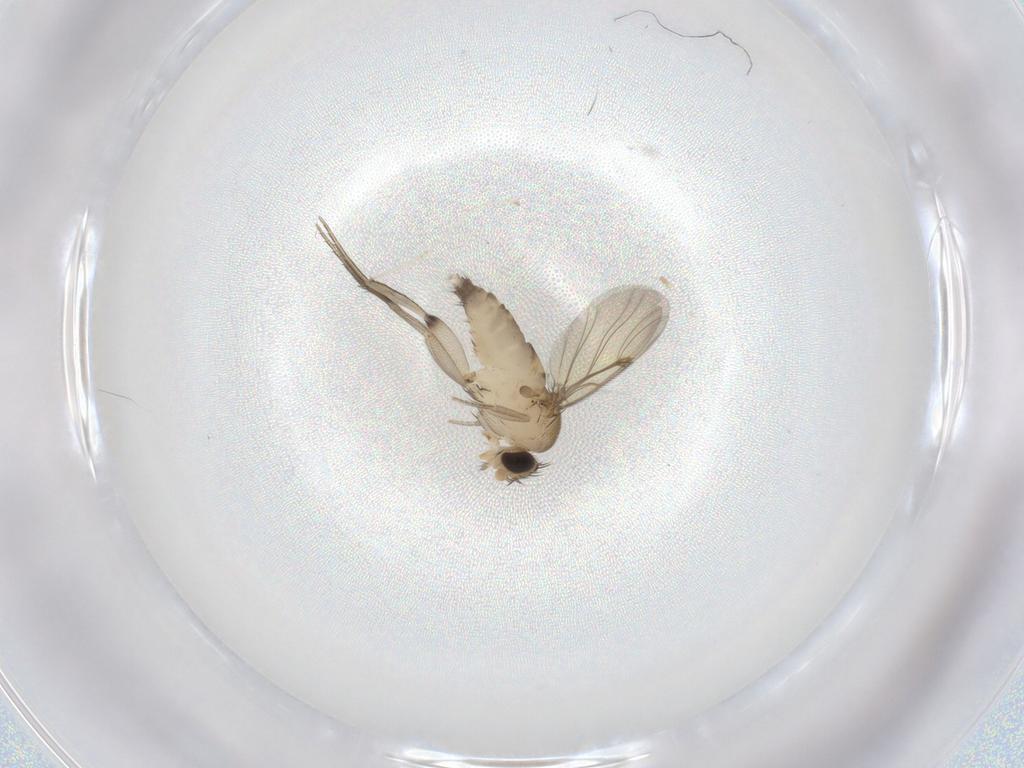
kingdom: Animalia
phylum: Arthropoda
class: Insecta
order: Diptera
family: Phoridae
